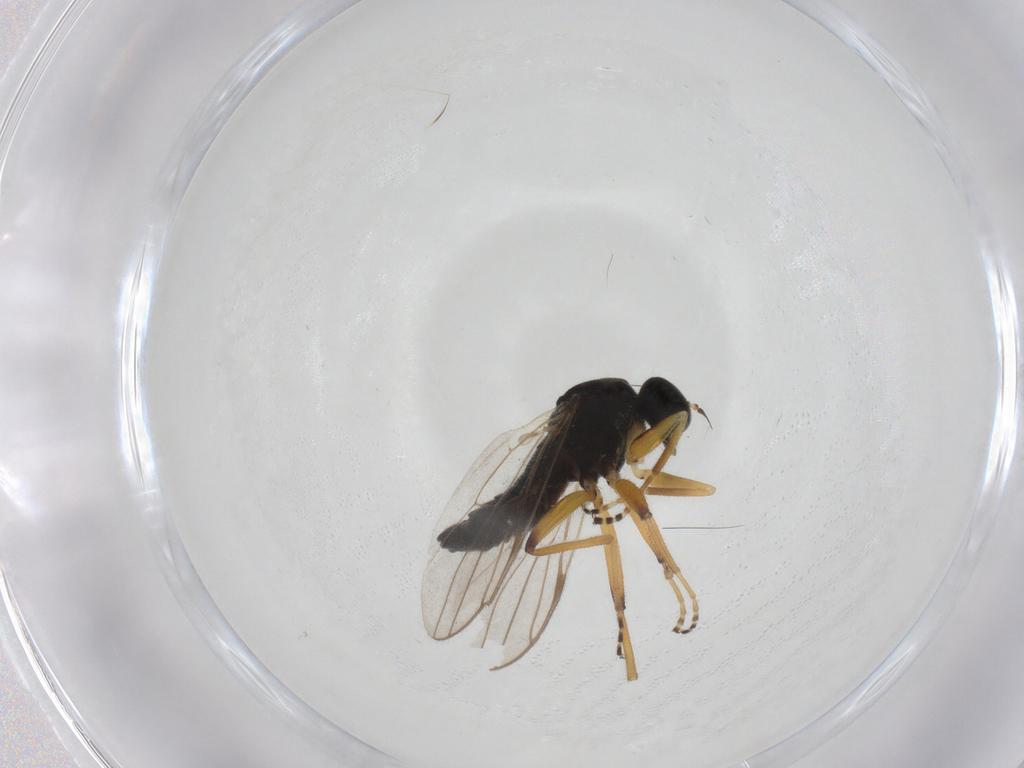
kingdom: Animalia
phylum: Arthropoda
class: Insecta
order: Diptera
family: Hybotidae
